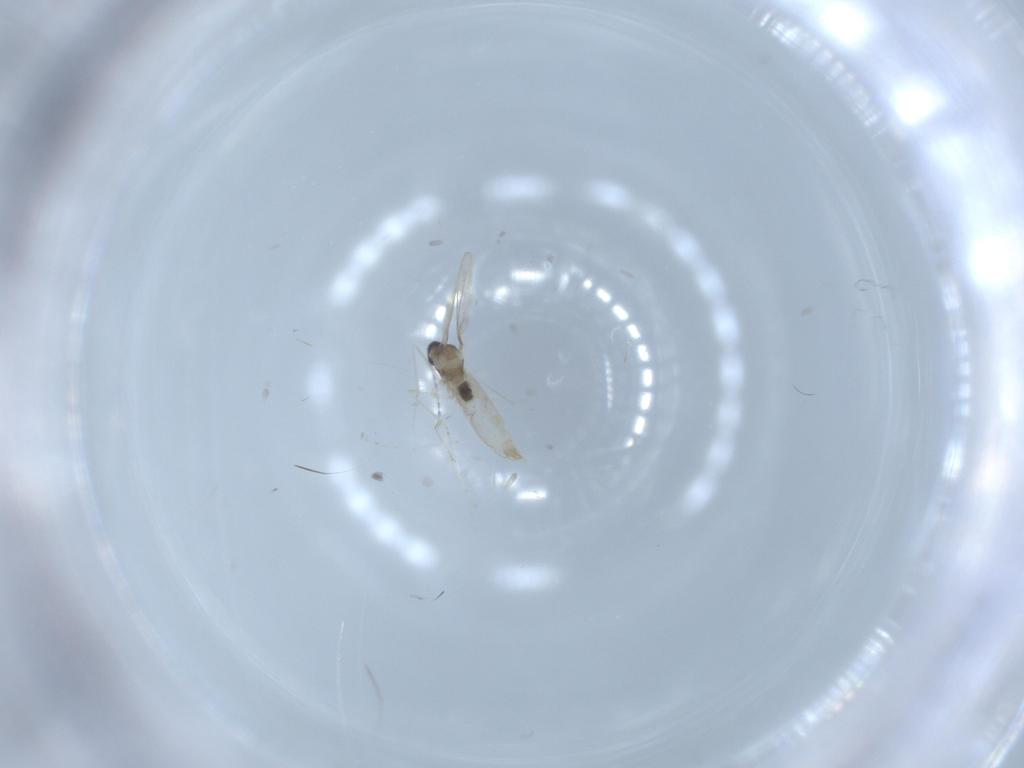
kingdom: Animalia
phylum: Arthropoda
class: Insecta
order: Diptera
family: Cecidomyiidae
